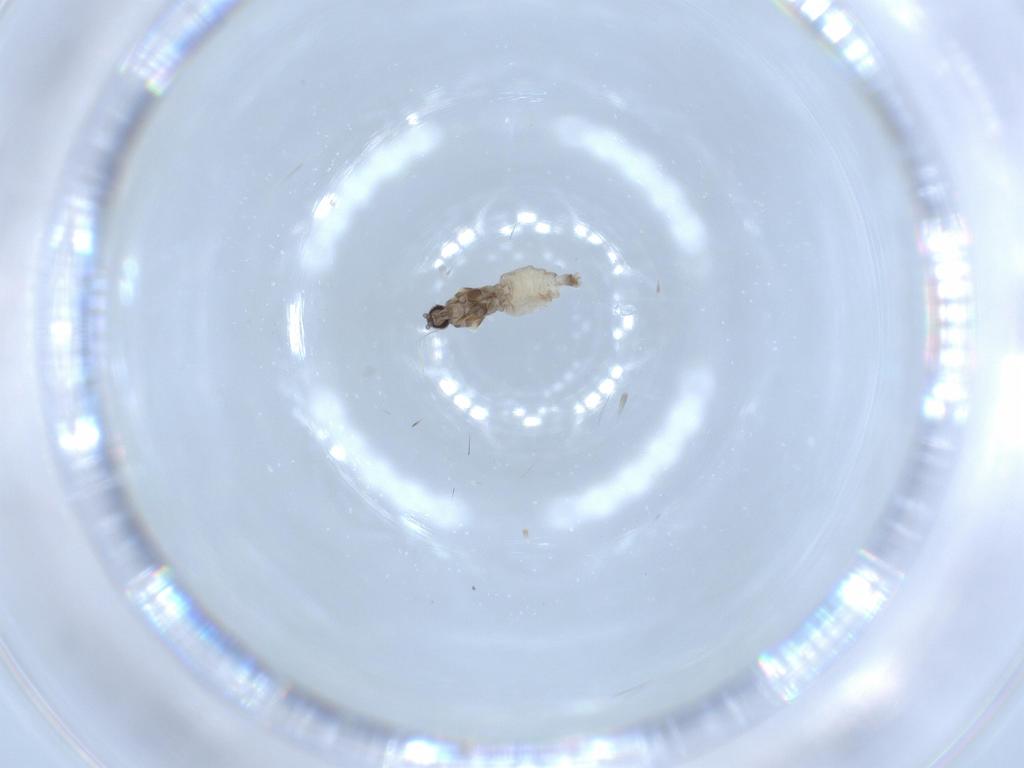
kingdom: Animalia
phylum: Arthropoda
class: Insecta
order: Diptera
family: Cecidomyiidae
